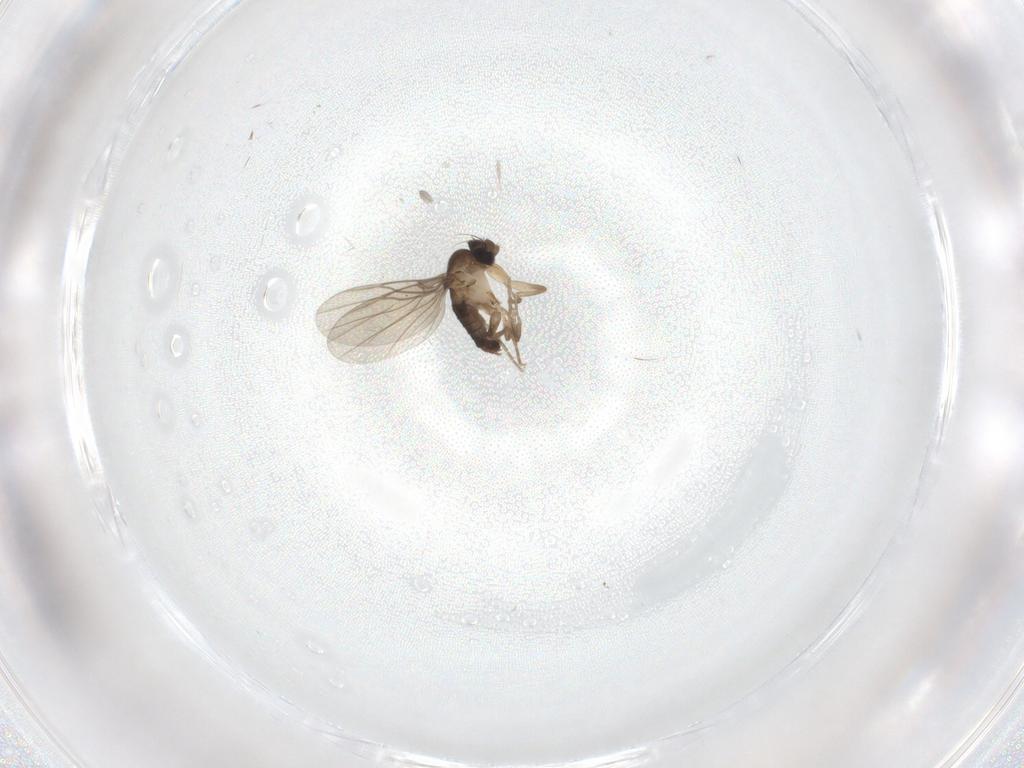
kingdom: Animalia
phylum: Arthropoda
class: Insecta
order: Diptera
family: Phoridae
